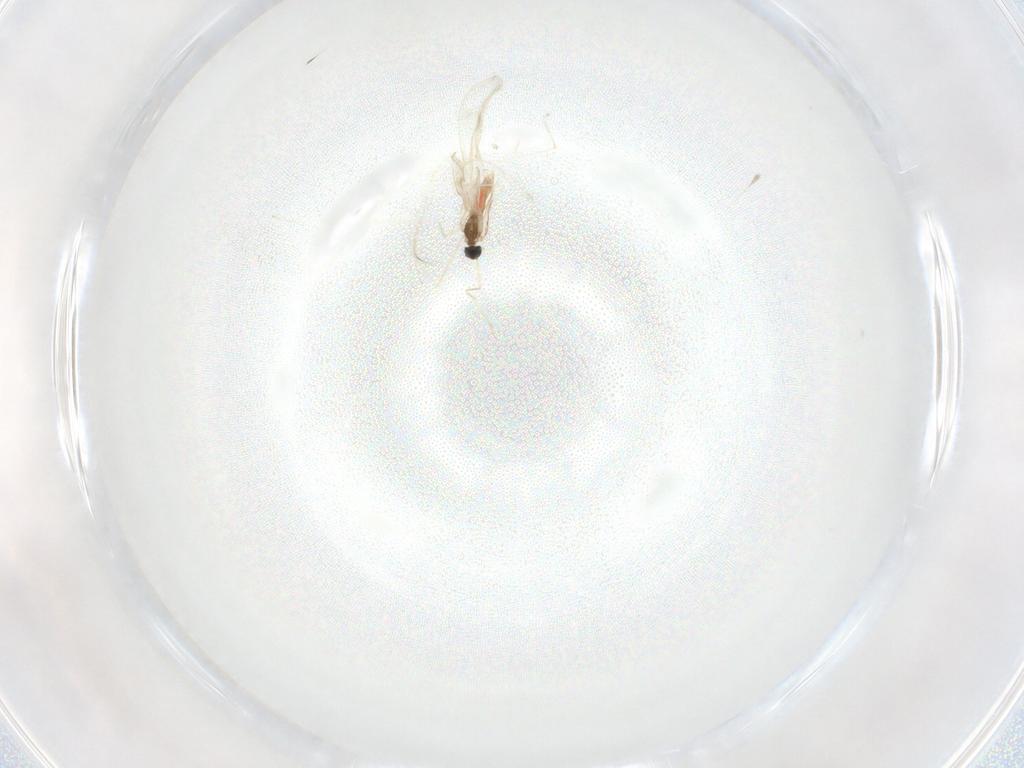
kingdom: Animalia
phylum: Arthropoda
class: Insecta
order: Diptera
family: Cecidomyiidae
